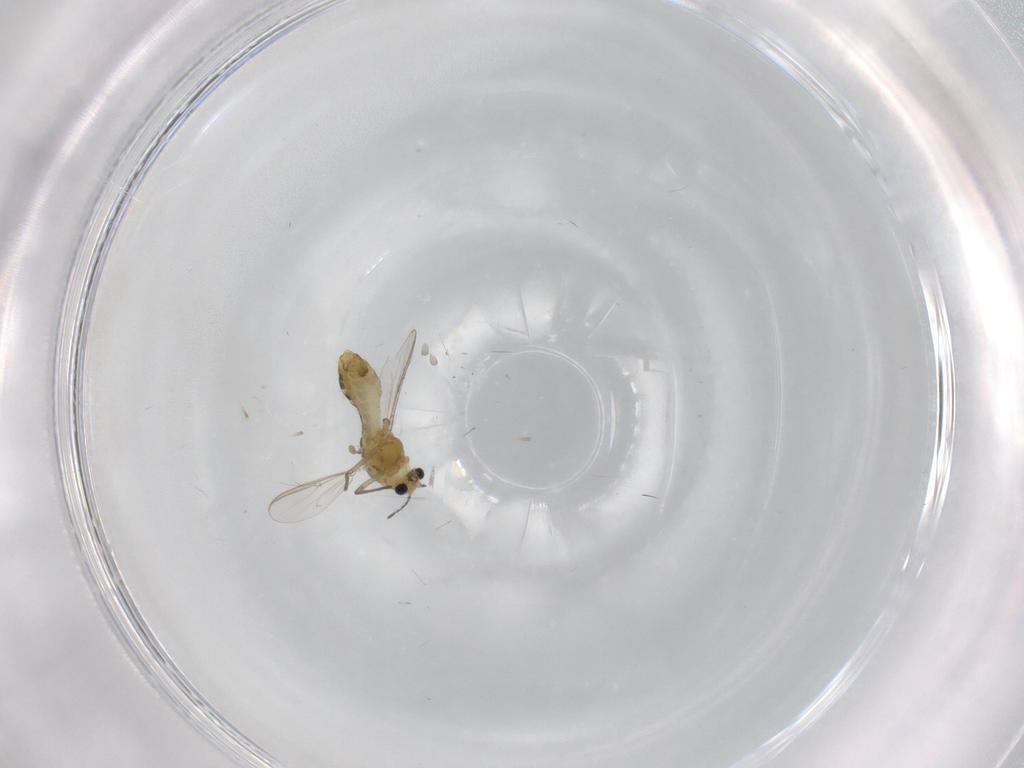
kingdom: Animalia
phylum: Arthropoda
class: Insecta
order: Diptera
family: Chironomidae
